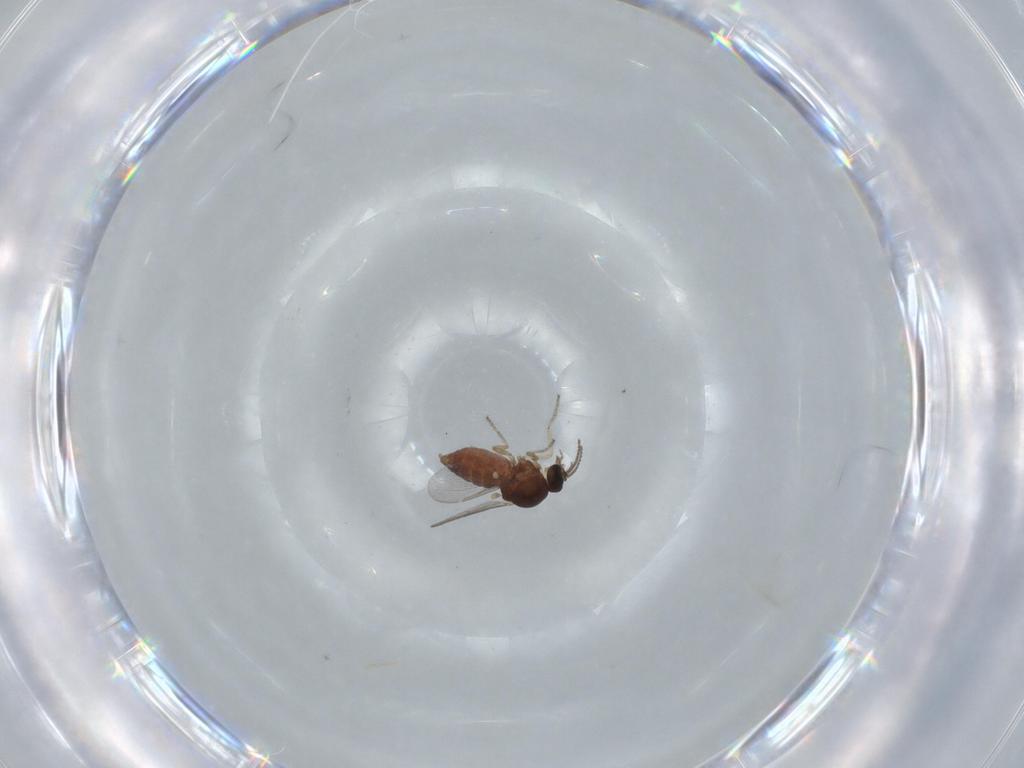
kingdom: Animalia
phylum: Arthropoda
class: Insecta
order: Diptera
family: Ceratopogonidae
